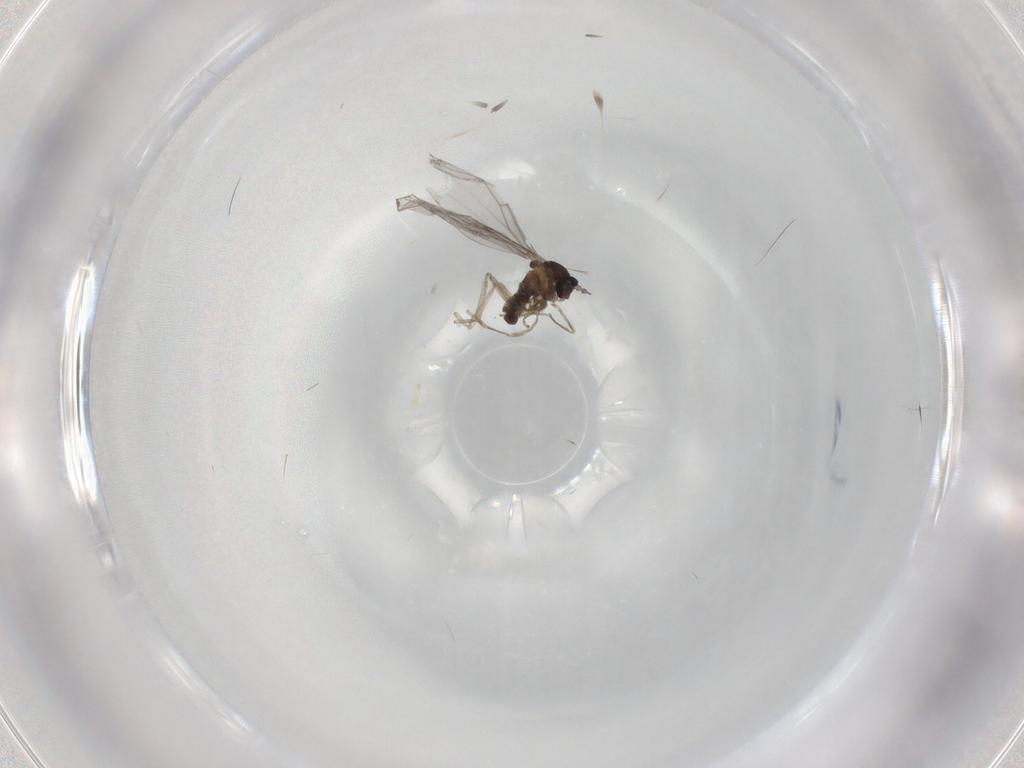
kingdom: Animalia
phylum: Arthropoda
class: Insecta
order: Diptera
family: Cecidomyiidae
